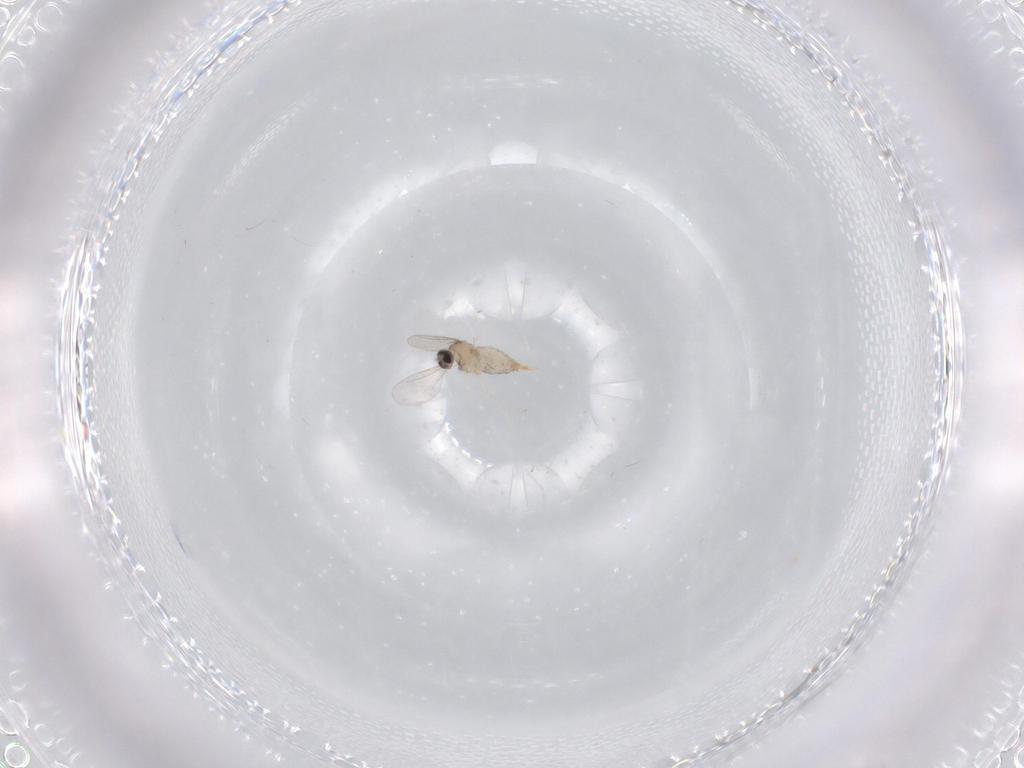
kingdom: Animalia
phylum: Arthropoda
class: Insecta
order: Diptera
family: Cecidomyiidae
